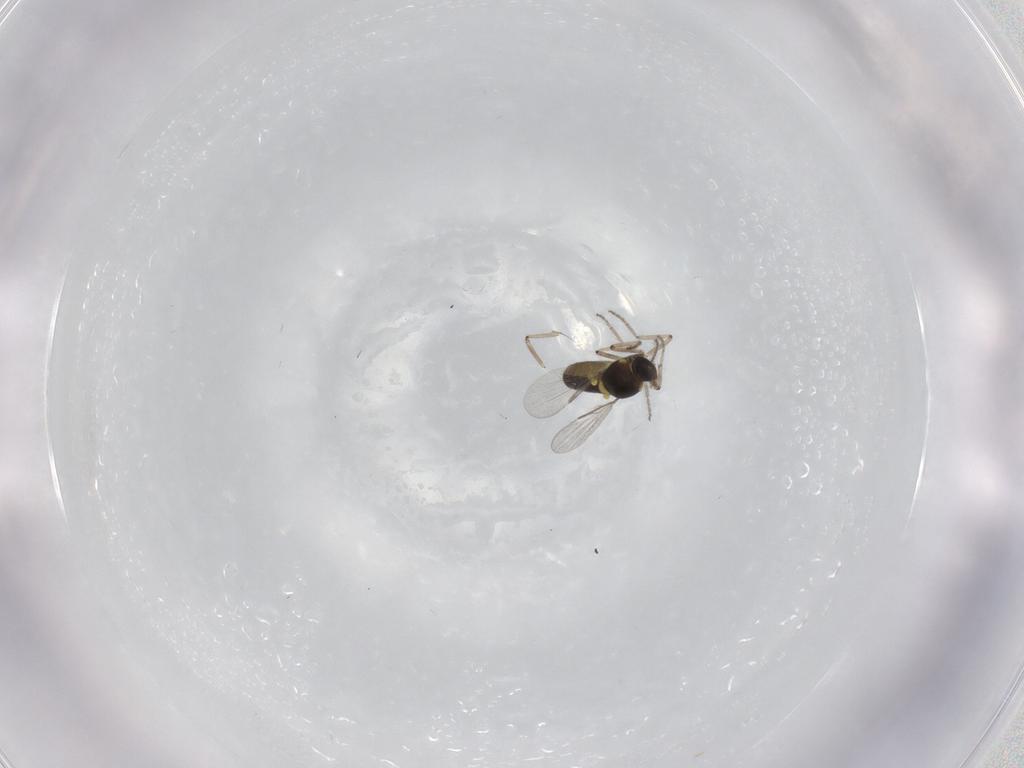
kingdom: Animalia
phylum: Arthropoda
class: Insecta
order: Diptera
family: Ceratopogonidae
